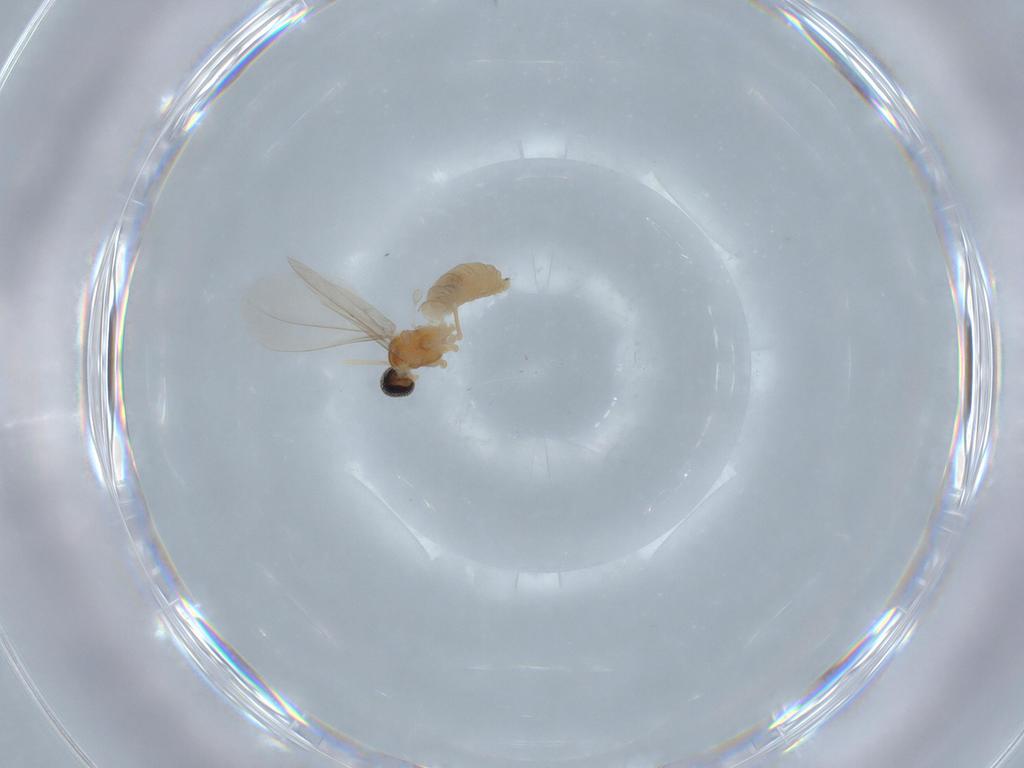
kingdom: Animalia
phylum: Arthropoda
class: Insecta
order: Diptera
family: Cecidomyiidae
